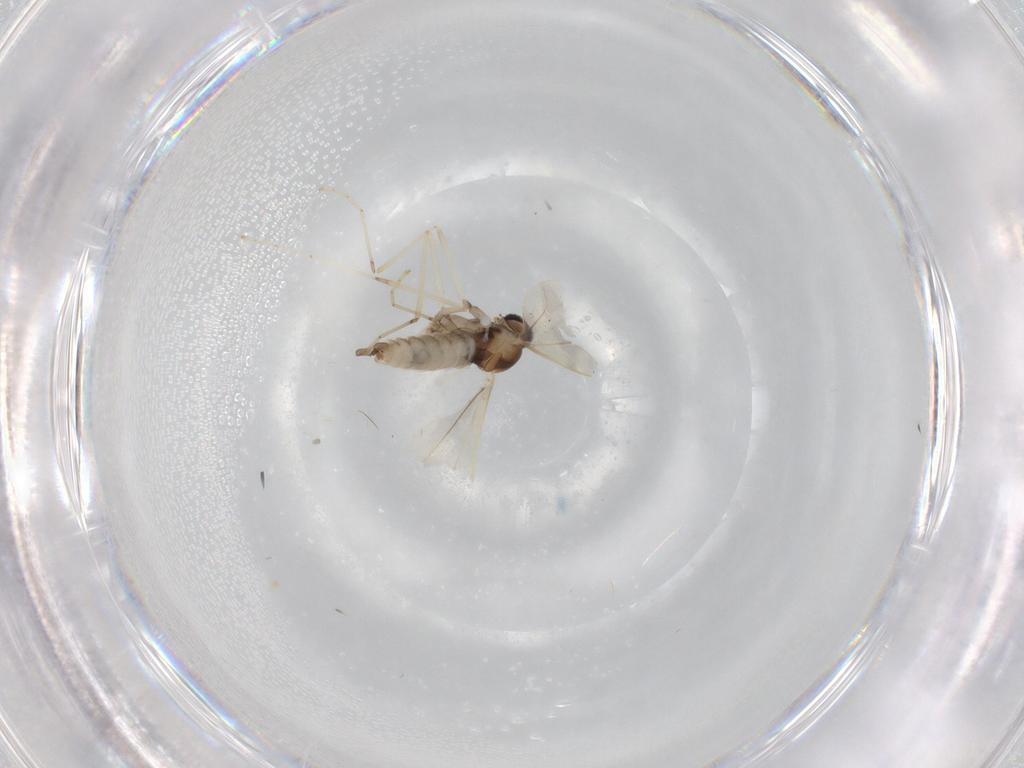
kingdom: Animalia
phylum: Arthropoda
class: Insecta
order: Diptera
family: Cecidomyiidae
